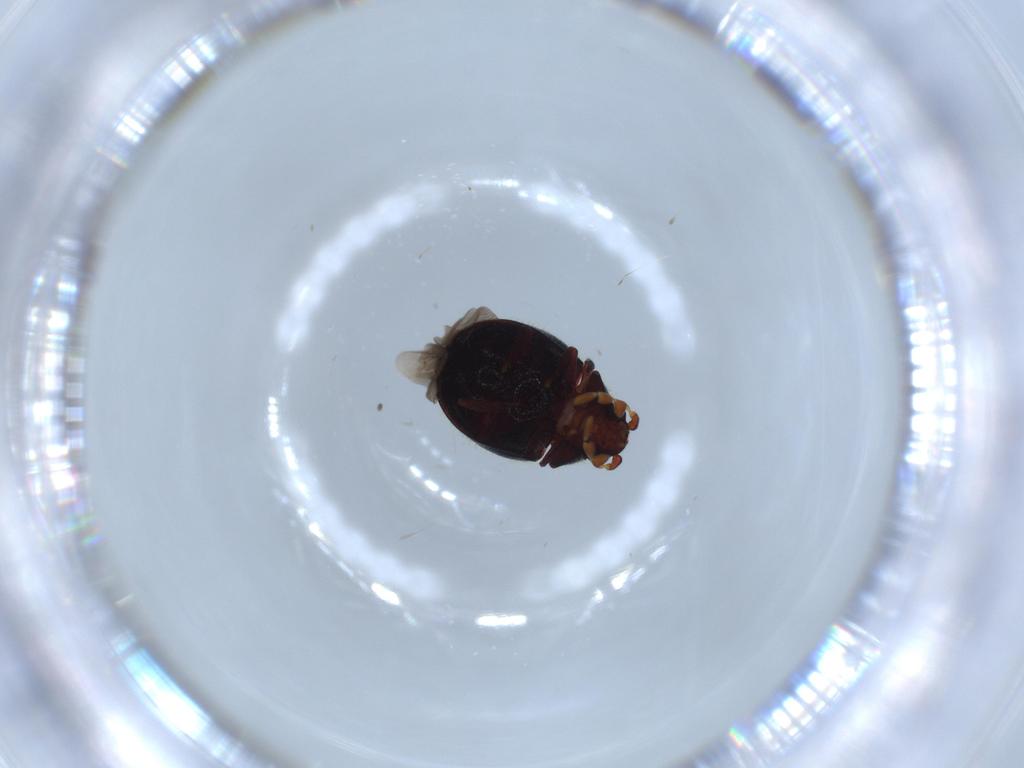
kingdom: Animalia
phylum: Arthropoda
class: Insecta
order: Coleoptera
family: Ptinidae
